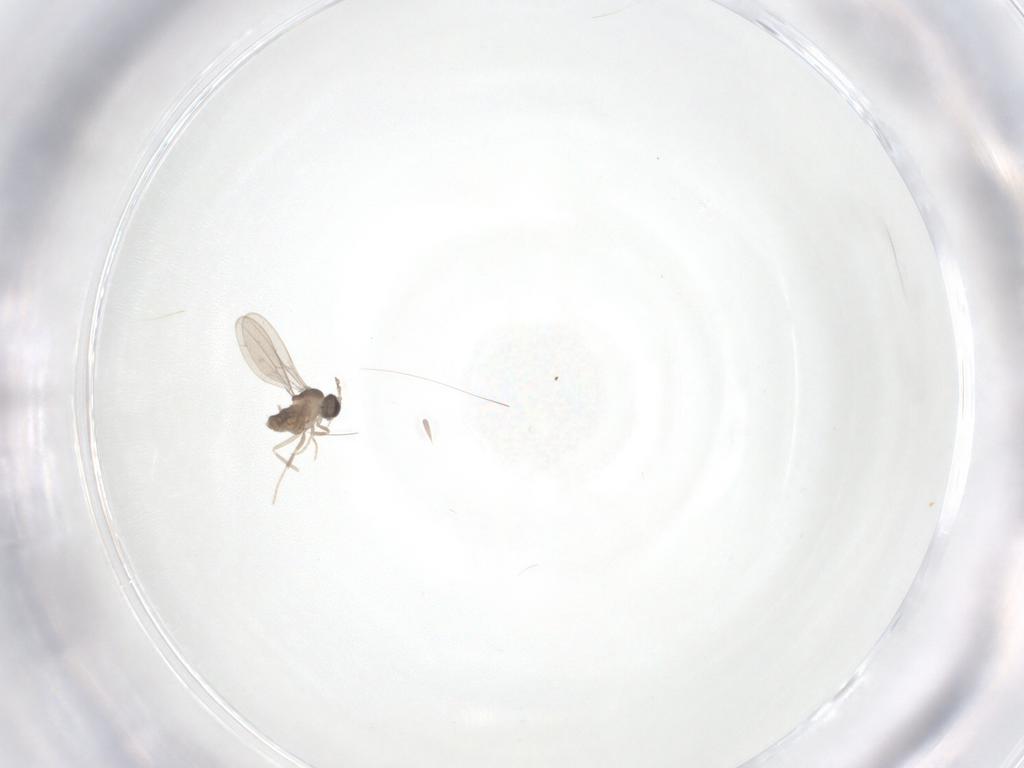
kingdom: Animalia
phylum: Arthropoda
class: Insecta
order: Diptera
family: Cecidomyiidae
